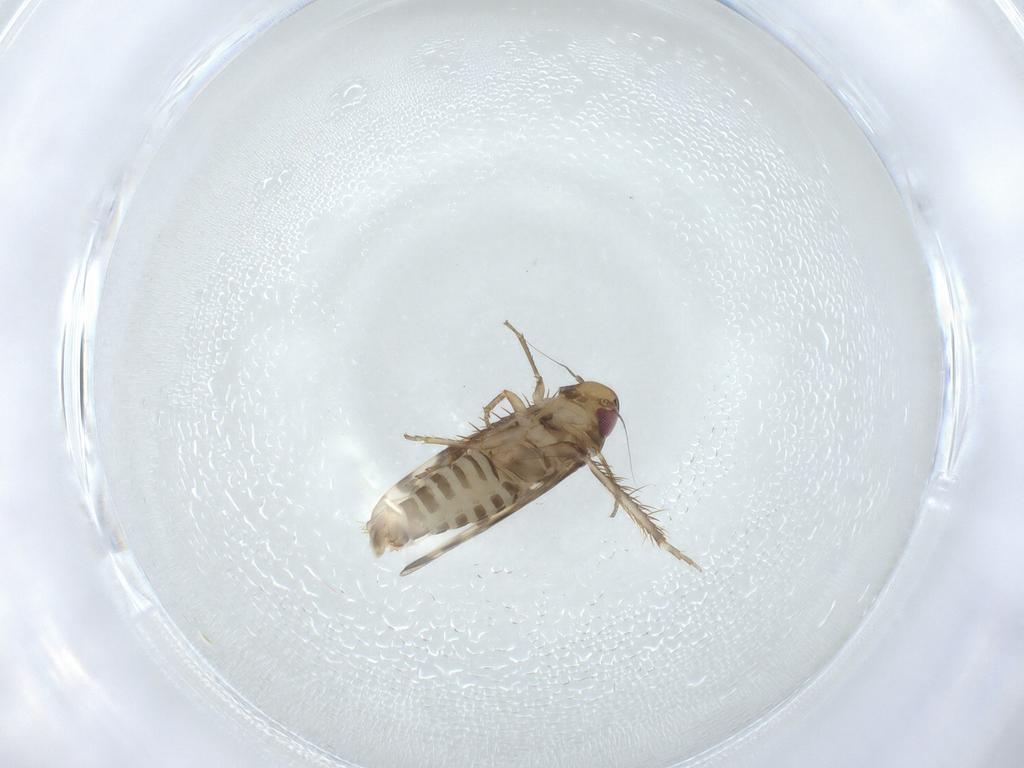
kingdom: Animalia
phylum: Arthropoda
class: Insecta
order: Hemiptera
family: Cicadellidae
